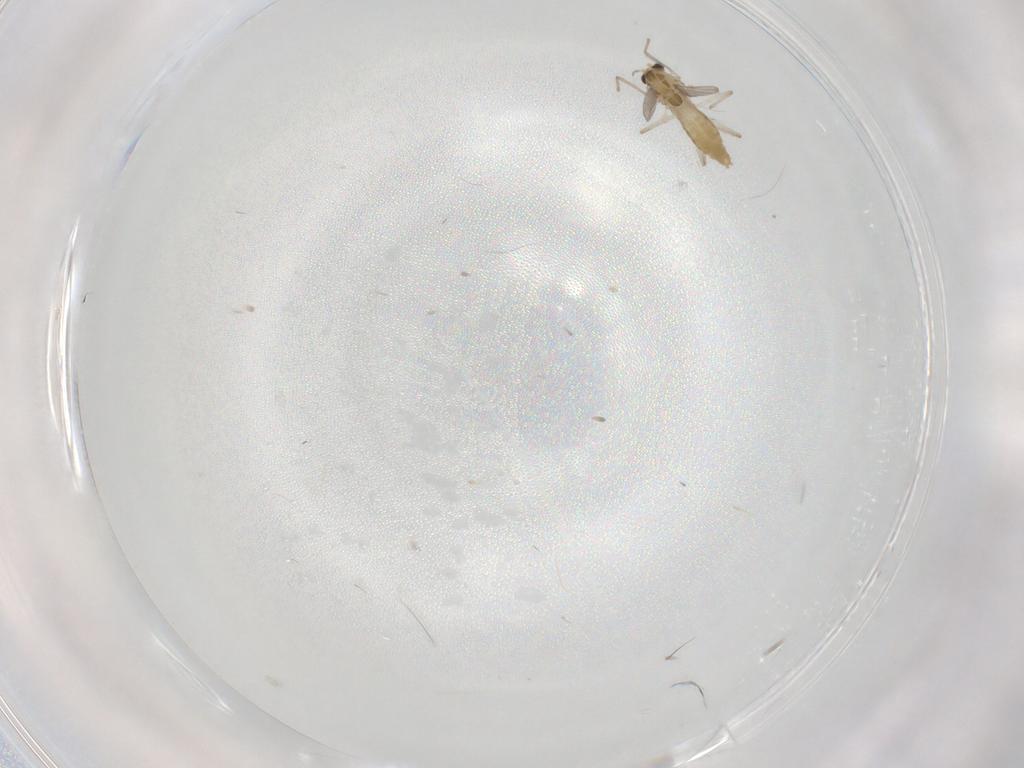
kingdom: Animalia
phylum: Arthropoda
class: Insecta
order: Diptera
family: Chironomidae
